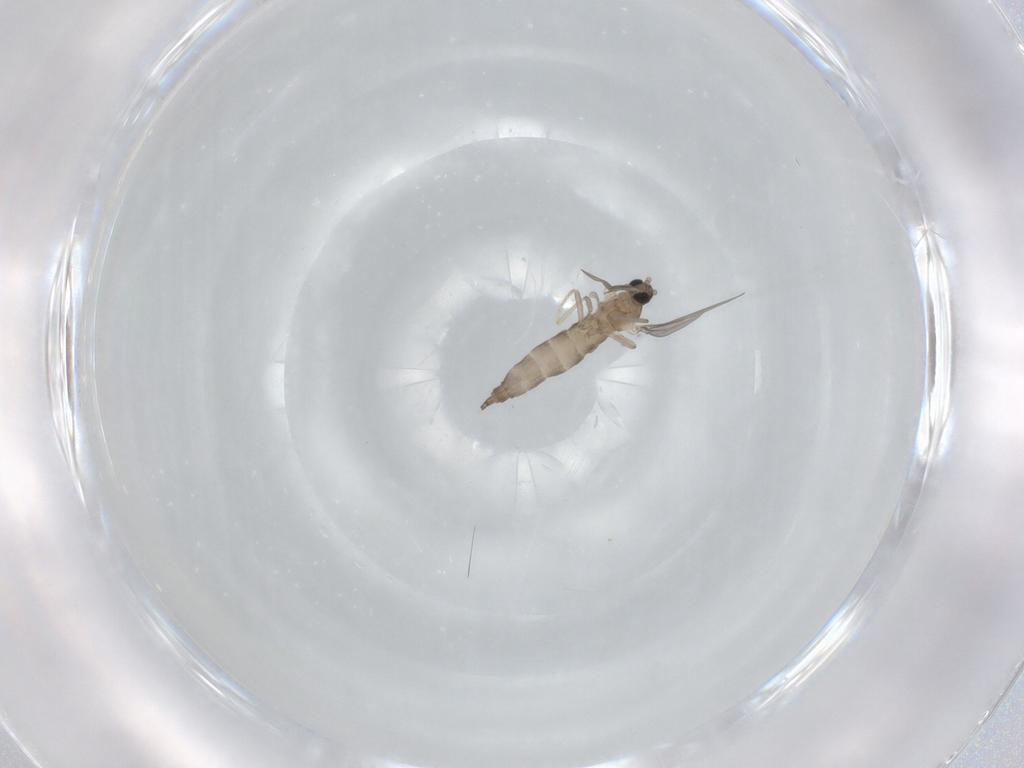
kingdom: Animalia
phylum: Arthropoda
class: Insecta
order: Diptera
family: Cecidomyiidae
